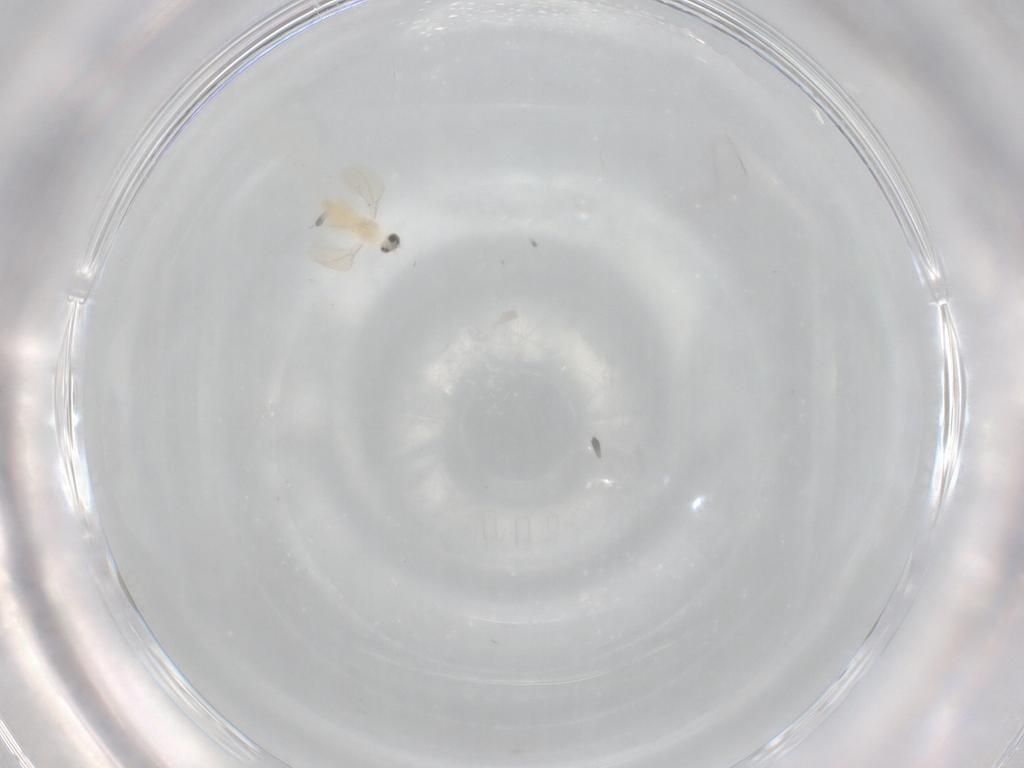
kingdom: Animalia
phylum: Arthropoda
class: Insecta
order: Diptera
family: Mycetophilidae
